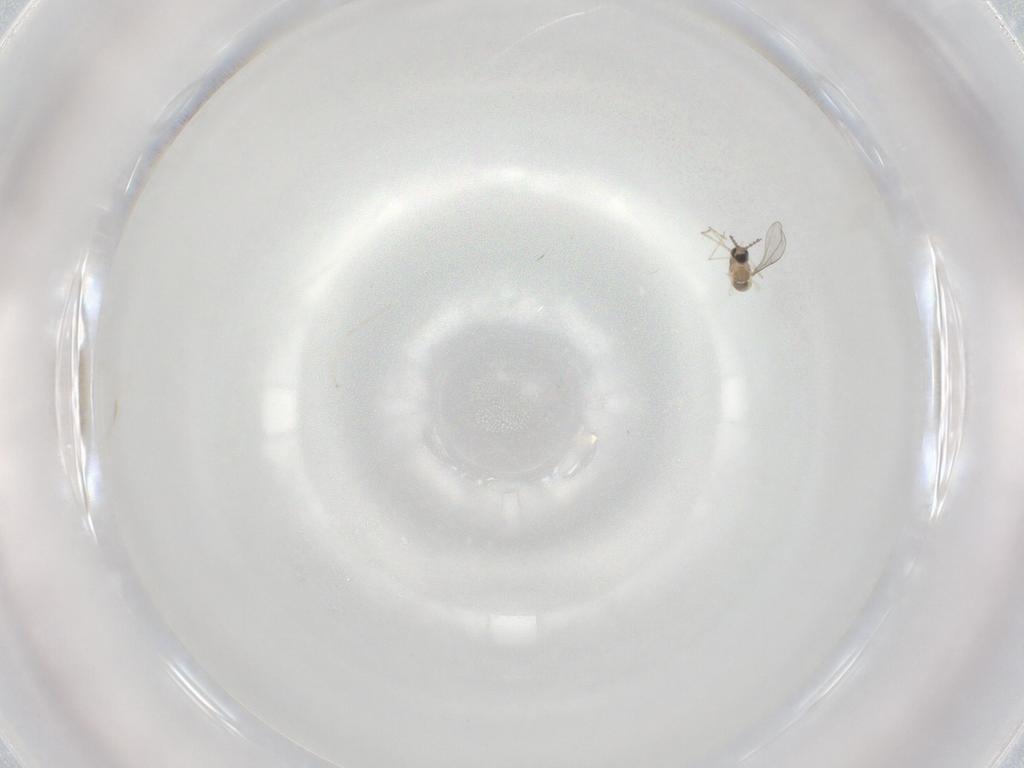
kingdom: Animalia
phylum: Arthropoda
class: Insecta
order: Diptera
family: Cecidomyiidae
